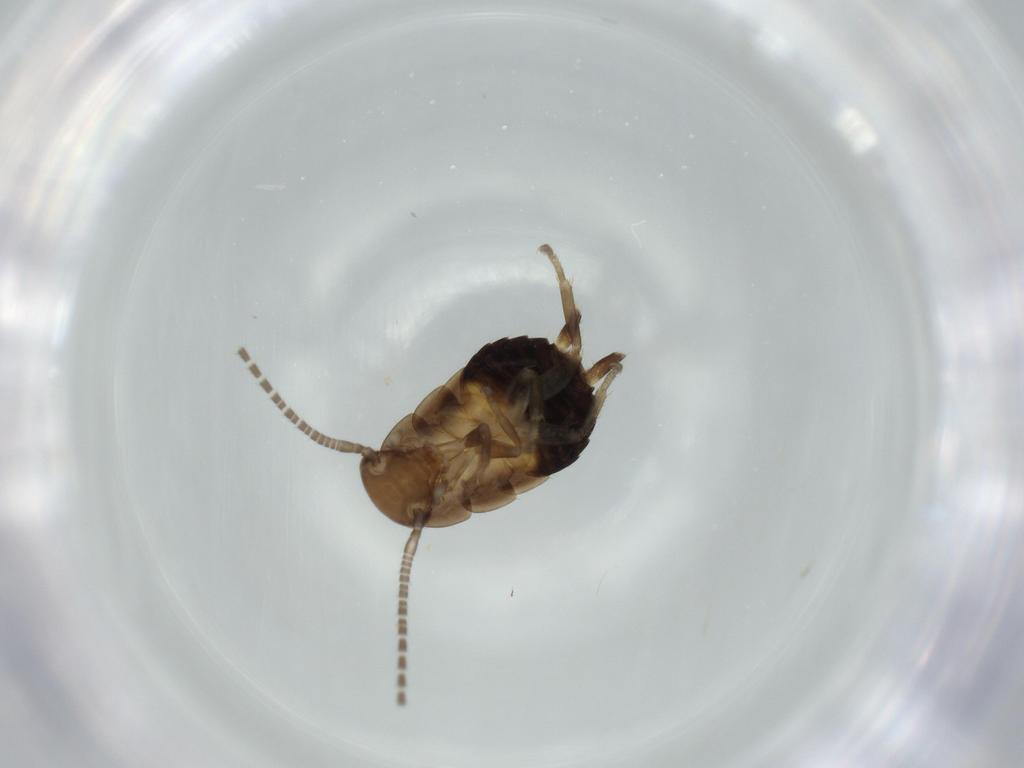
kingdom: Animalia
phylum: Arthropoda
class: Insecta
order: Blattodea
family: Ectobiidae
